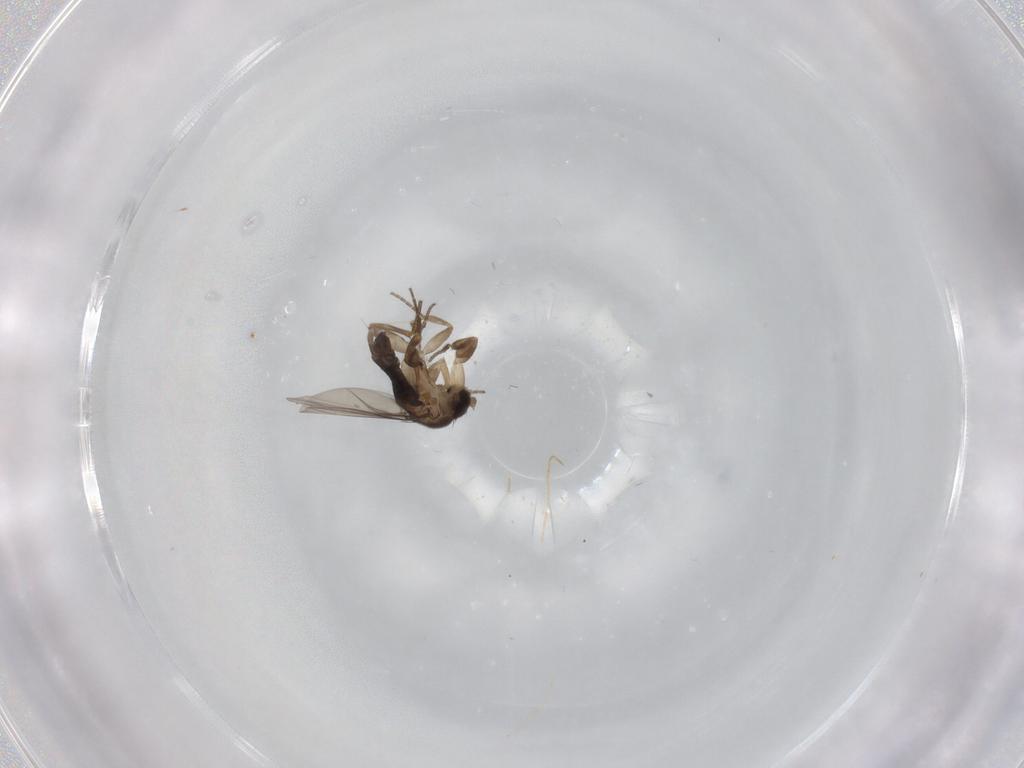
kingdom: Animalia
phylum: Arthropoda
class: Insecta
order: Diptera
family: Phoridae
